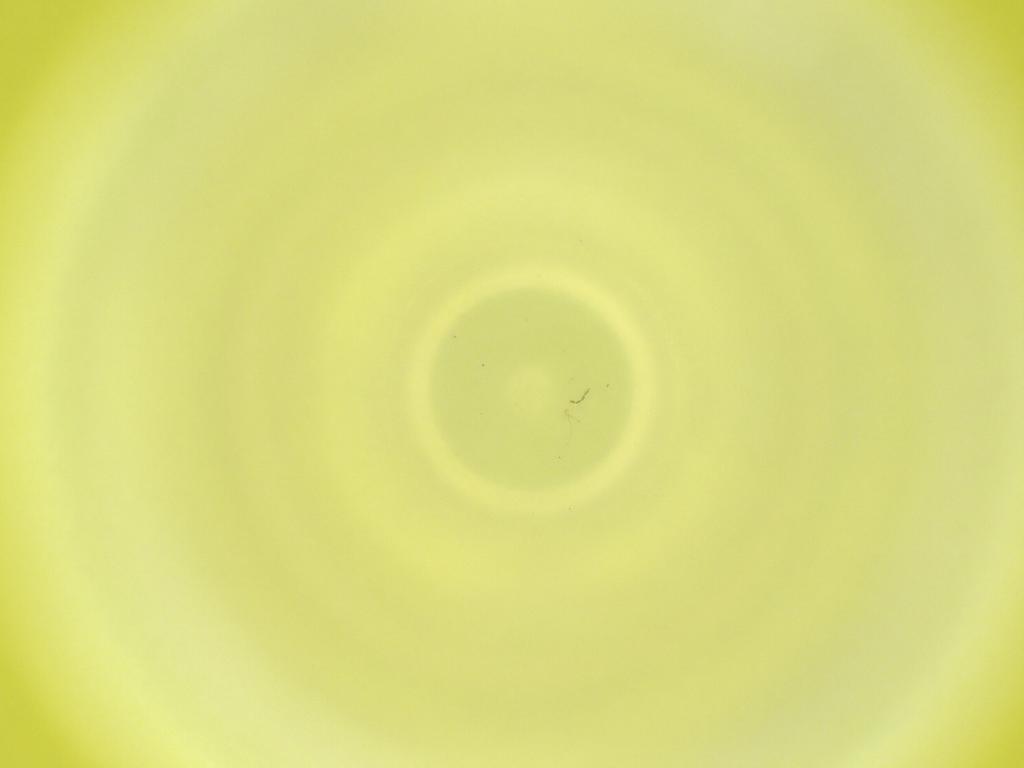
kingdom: Animalia
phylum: Arthropoda
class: Insecta
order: Diptera
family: Cecidomyiidae
